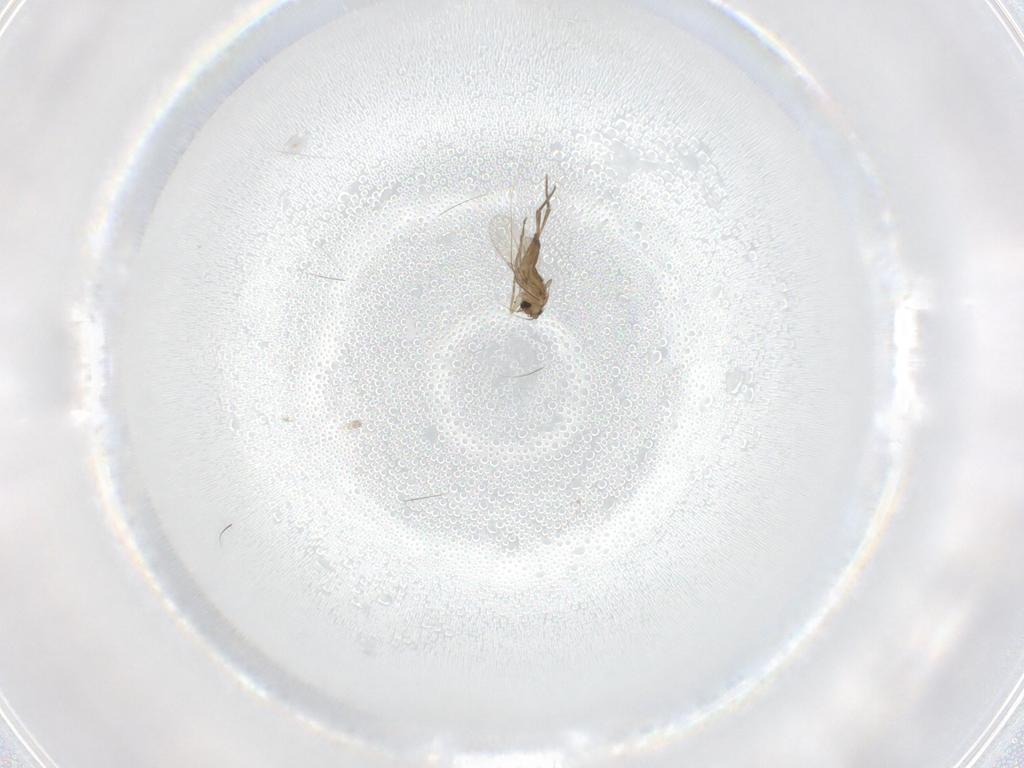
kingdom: Animalia
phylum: Arthropoda
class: Insecta
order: Diptera
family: Phoridae
